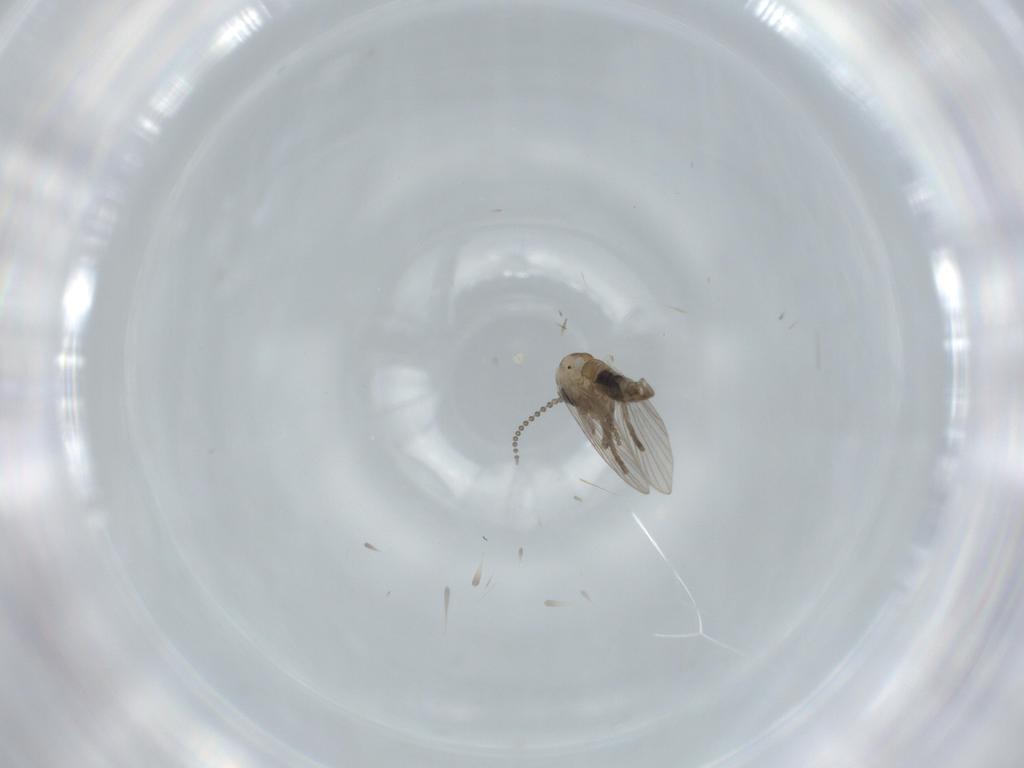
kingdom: Animalia
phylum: Arthropoda
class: Insecta
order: Diptera
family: Psychodidae
